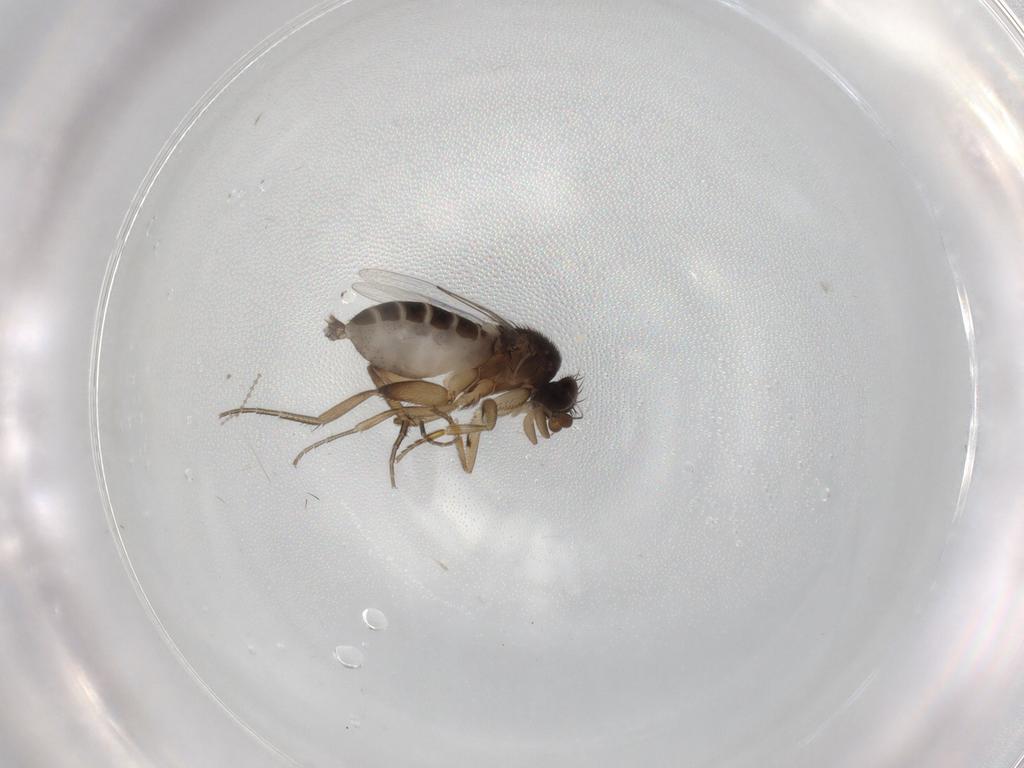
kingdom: Animalia
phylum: Arthropoda
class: Insecta
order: Diptera
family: Phoridae
